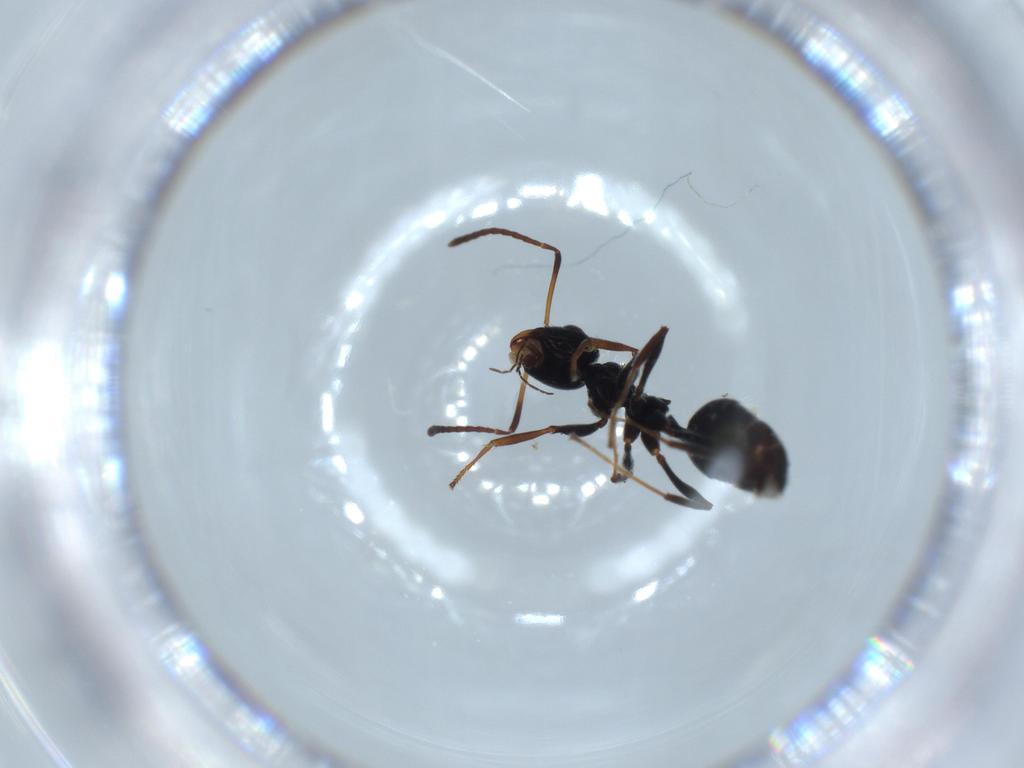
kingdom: Animalia
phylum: Arthropoda
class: Insecta
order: Hymenoptera
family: Formicidae
